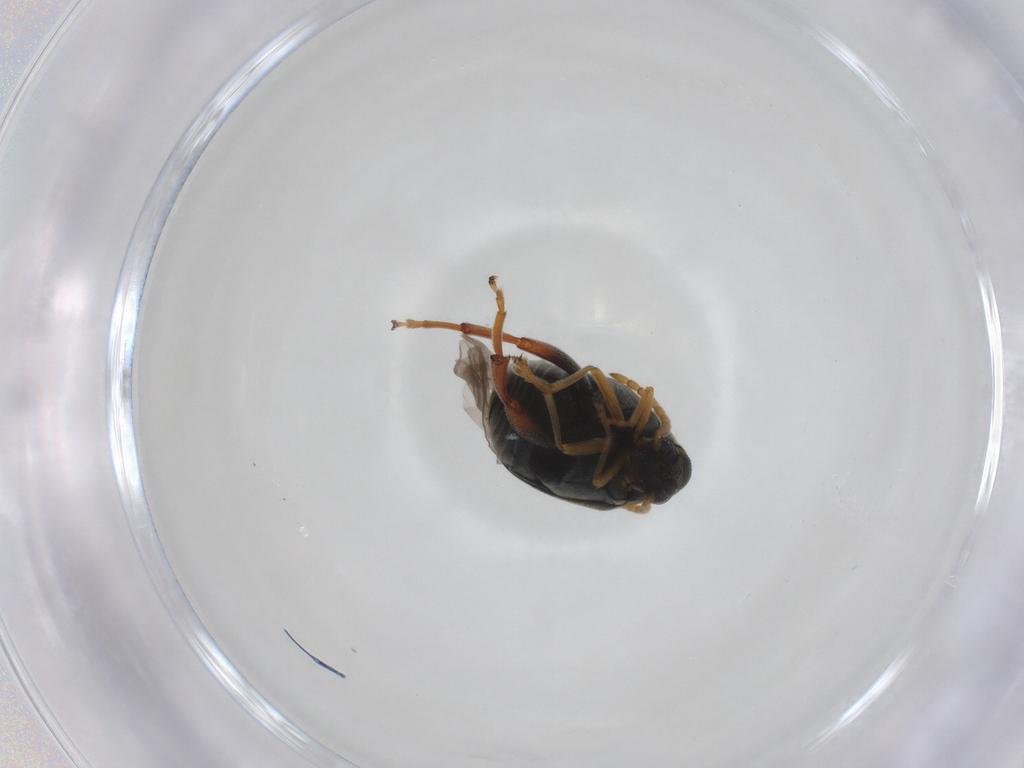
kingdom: Animalia
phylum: Arthropoda
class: Insecta
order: Coleoptera
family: Chrysomelidae
